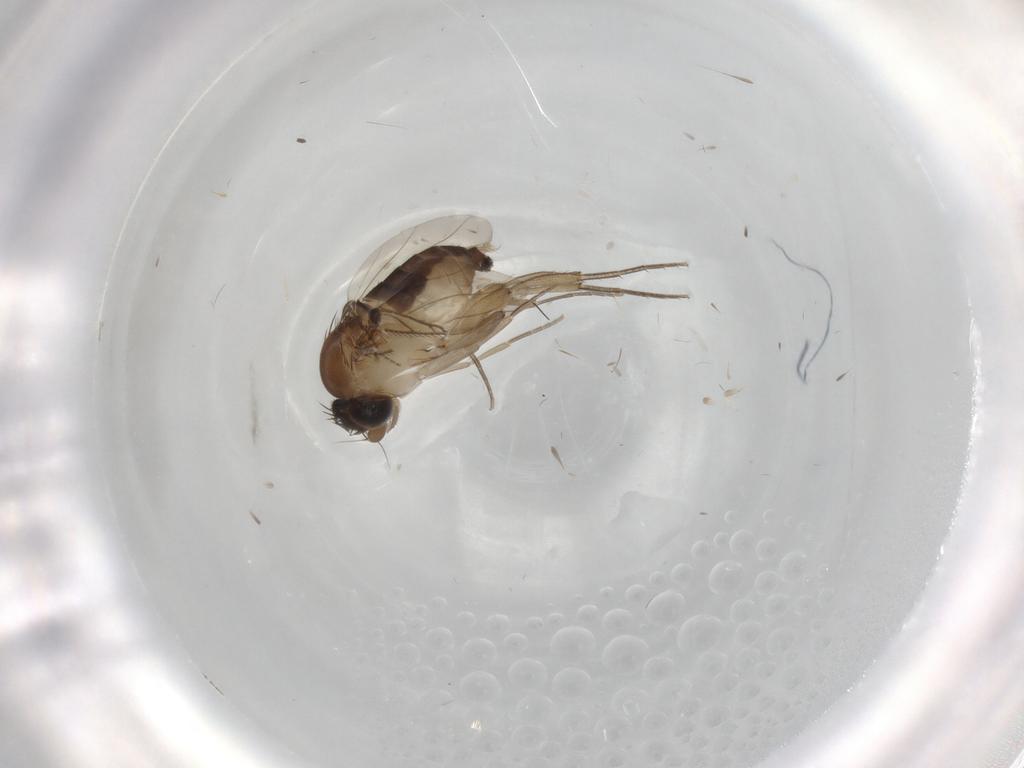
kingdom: Animalia
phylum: Arthropoda
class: Insecta
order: Diptera
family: Phoridae
